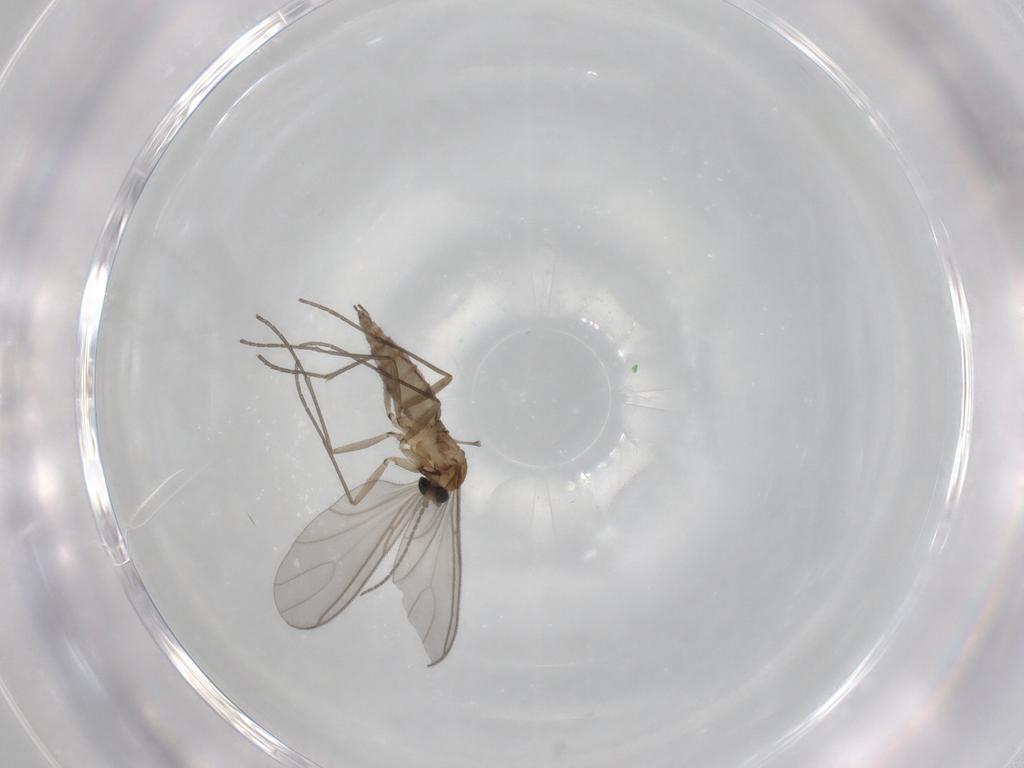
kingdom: Animalia
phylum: Arthropoda
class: Insecta
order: Diptera
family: Sciaridae
